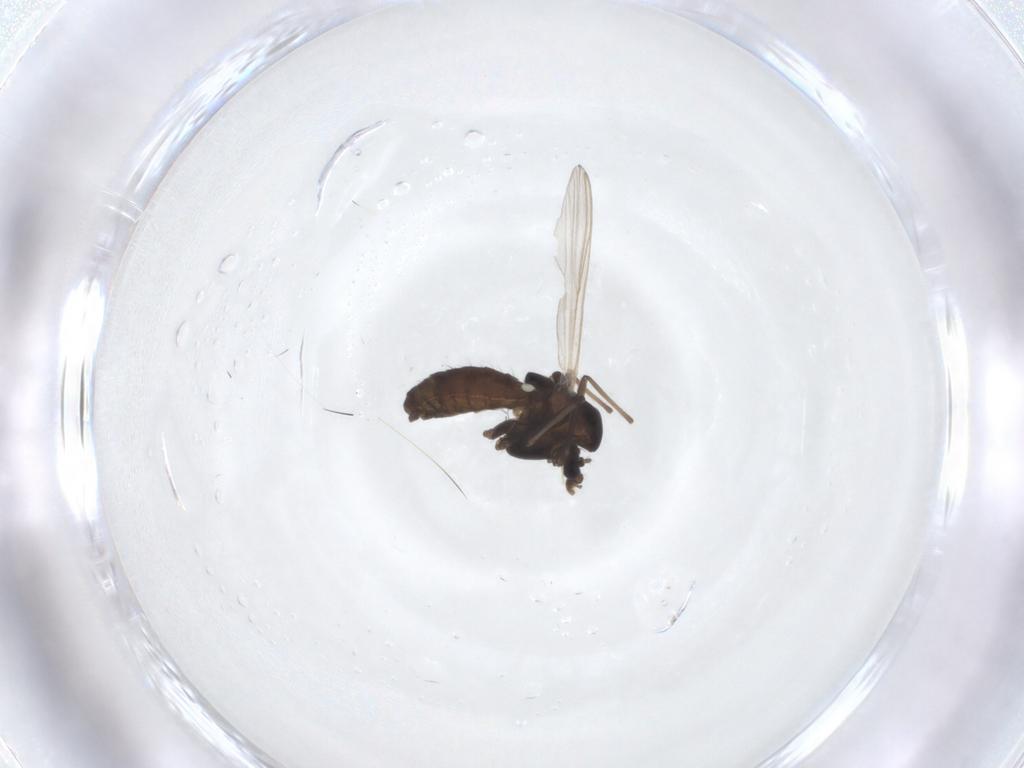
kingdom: Animalia
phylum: Arthropoda
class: Insecta
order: Diptera
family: Chironomidae
